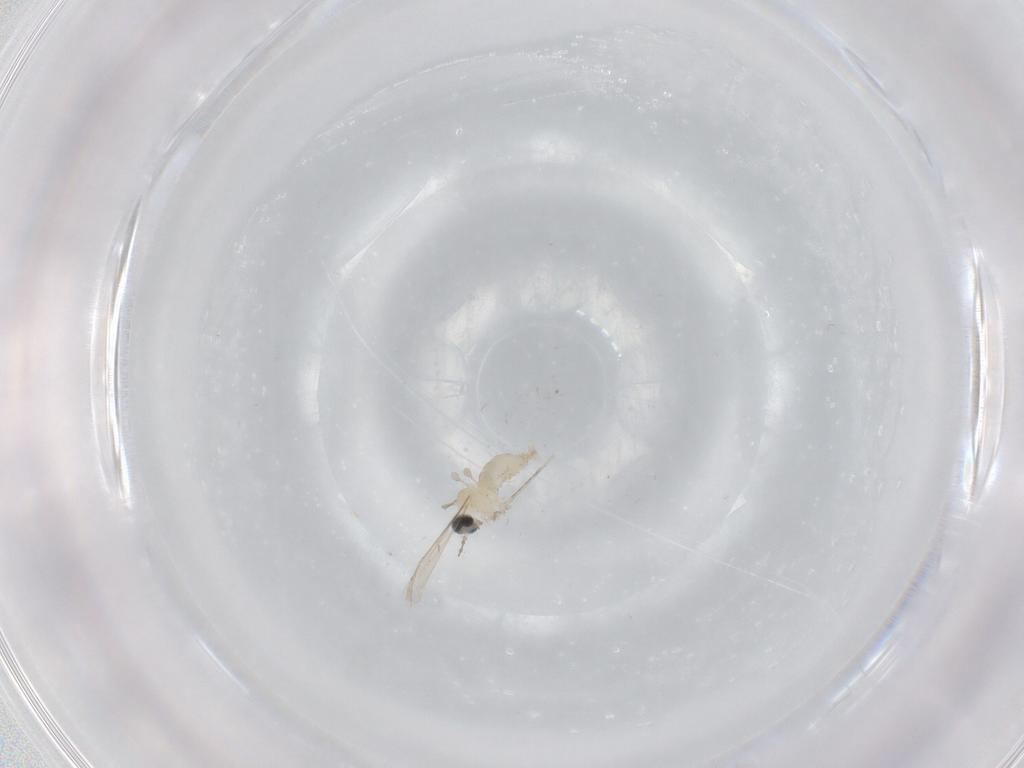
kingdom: Animalia
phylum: Arthropoda
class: Insecta
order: Diptera
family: Cecidomyiidae
